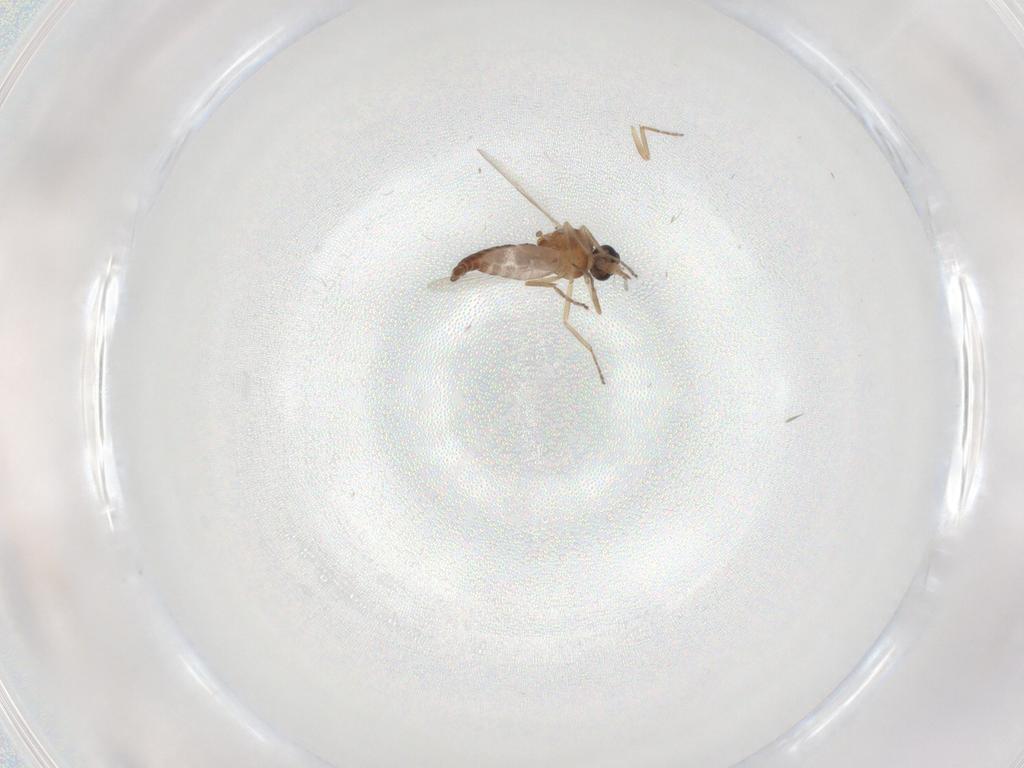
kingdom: Animalia
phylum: Arthropoda
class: Insecta
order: Diptera
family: Ceratopogonidae
